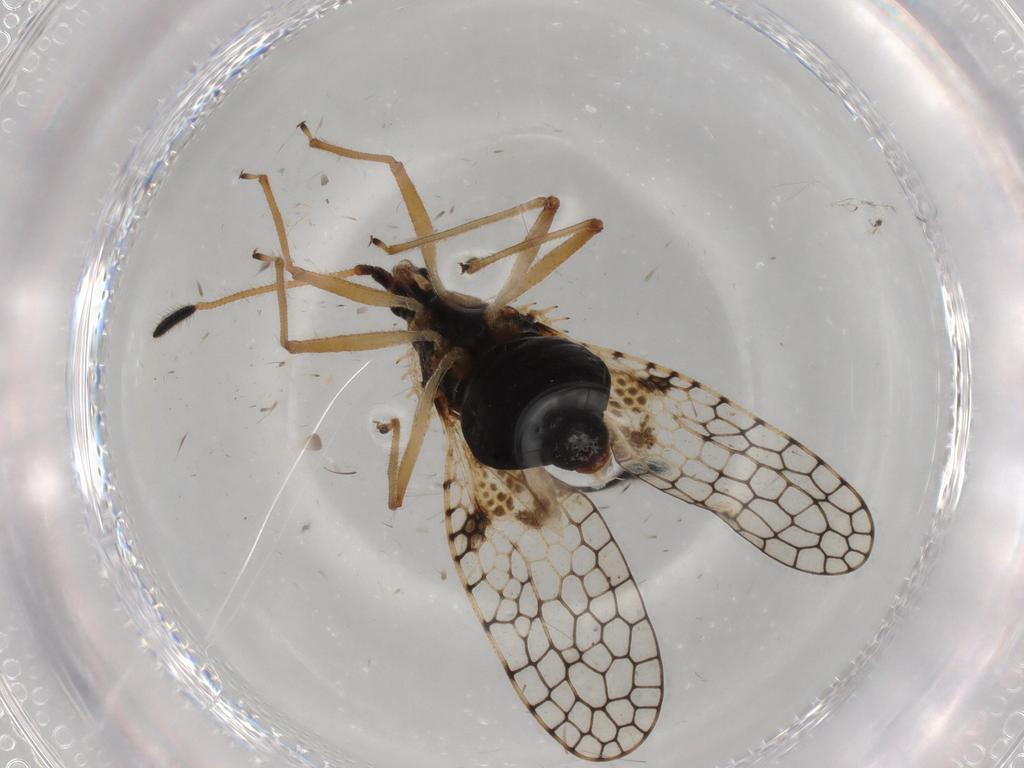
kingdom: Animalia
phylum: Arthropoda
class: Insecta
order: Hemiptera
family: Tingidae
